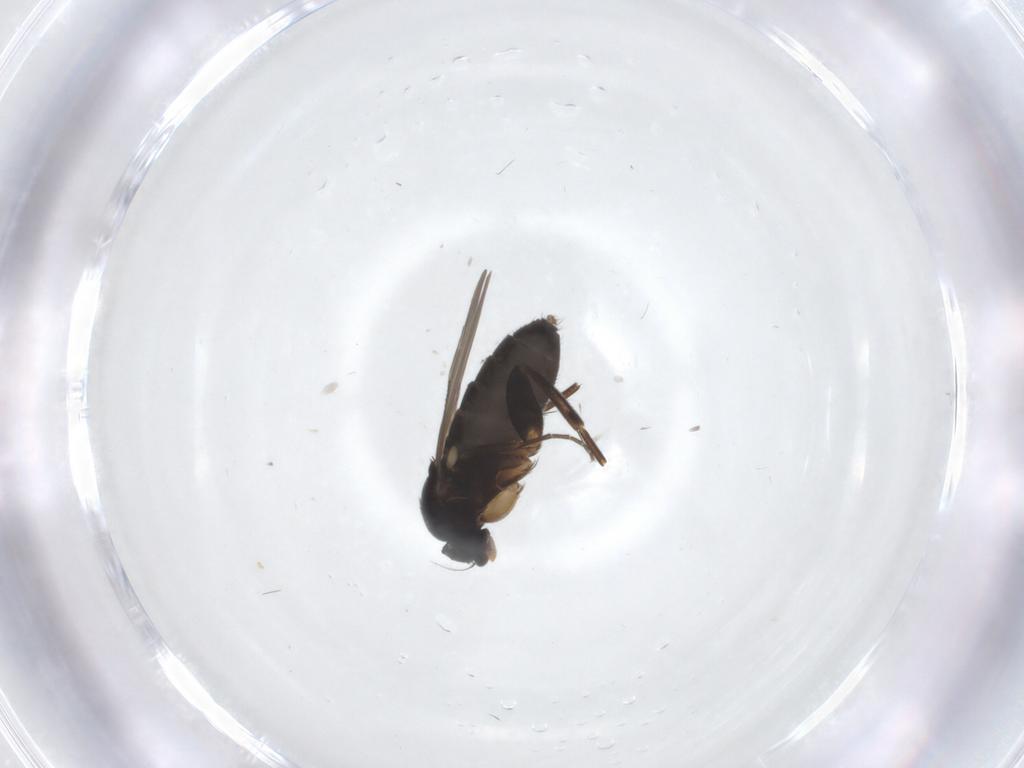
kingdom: Animalia
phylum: Arthropoda
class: Insecta
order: Diptera
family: Phoridae
